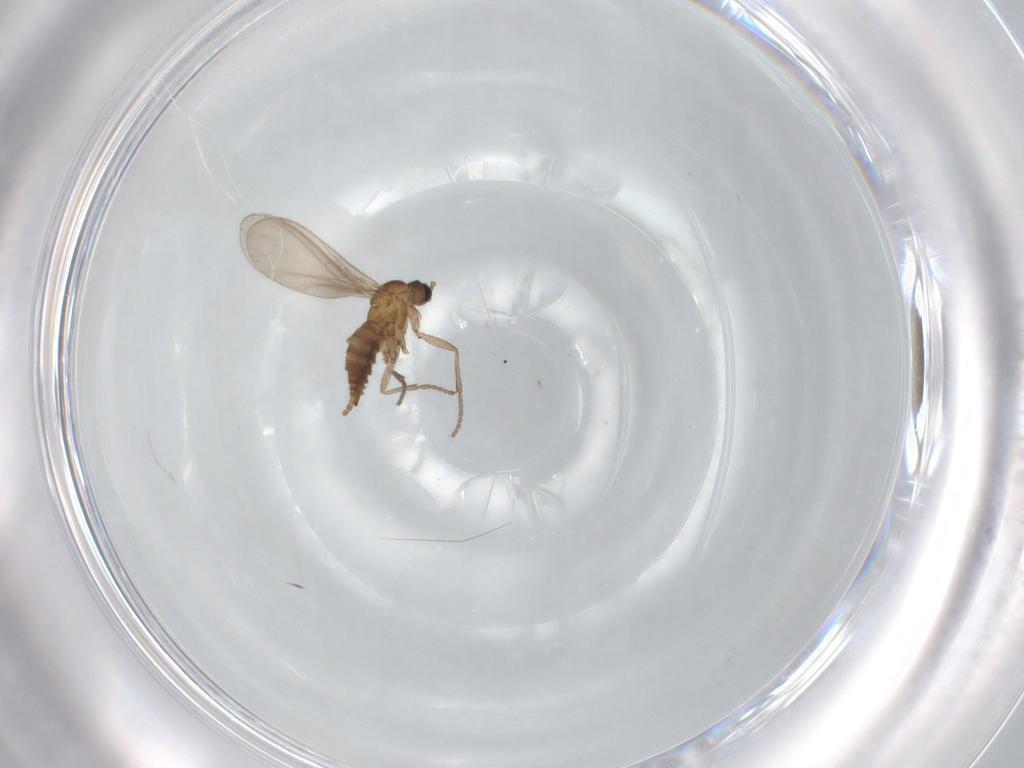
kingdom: Animalia
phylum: Arthropoda
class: Insecta
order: Diptera
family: Sciaridae
